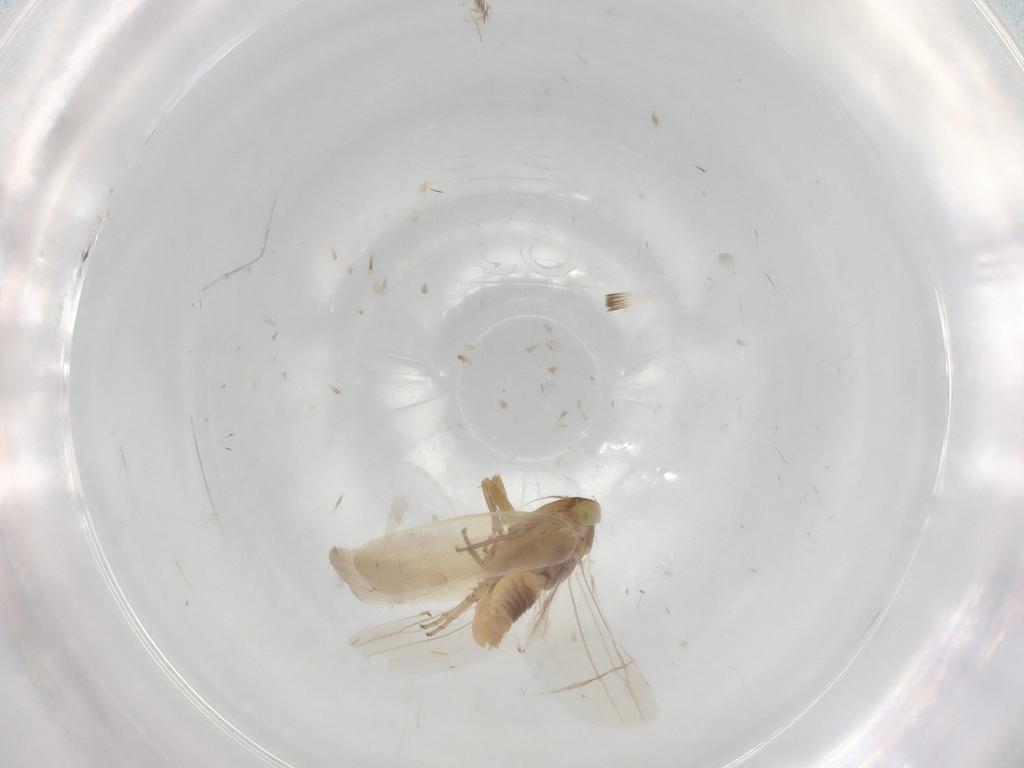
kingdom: Animalia
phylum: Arthropoda
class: Insecta
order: Hemiptera
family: Cicadellidae
